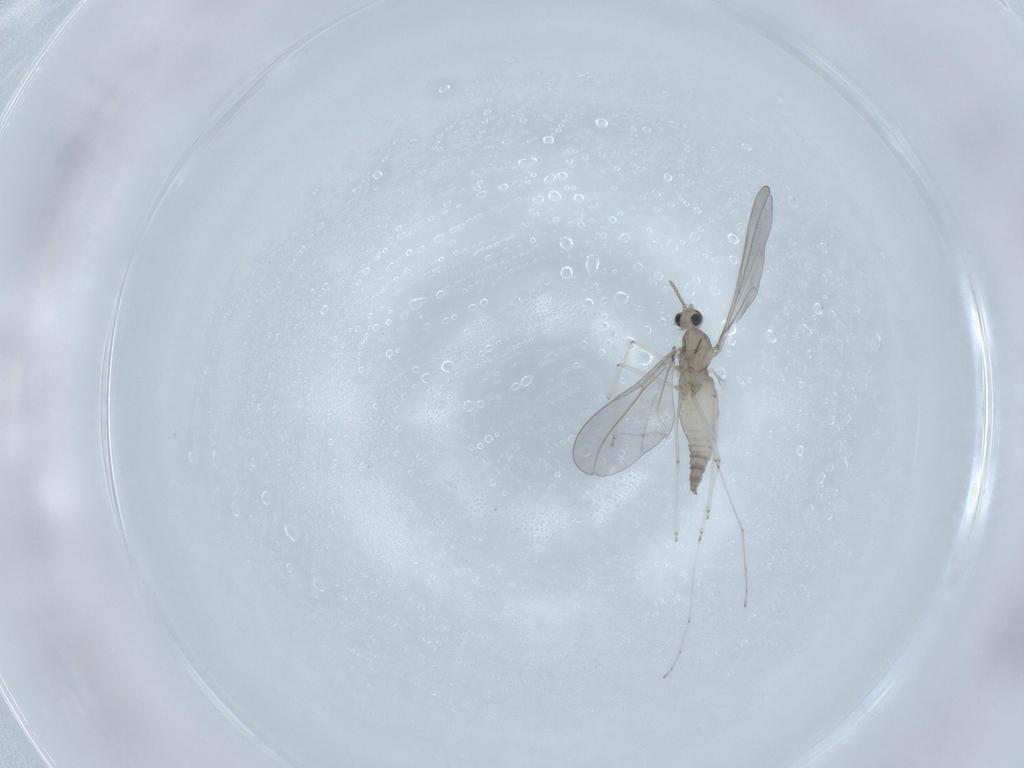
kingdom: Animalia
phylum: Arthropoda
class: Insecta
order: Diptera
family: Cecidomyiidae
